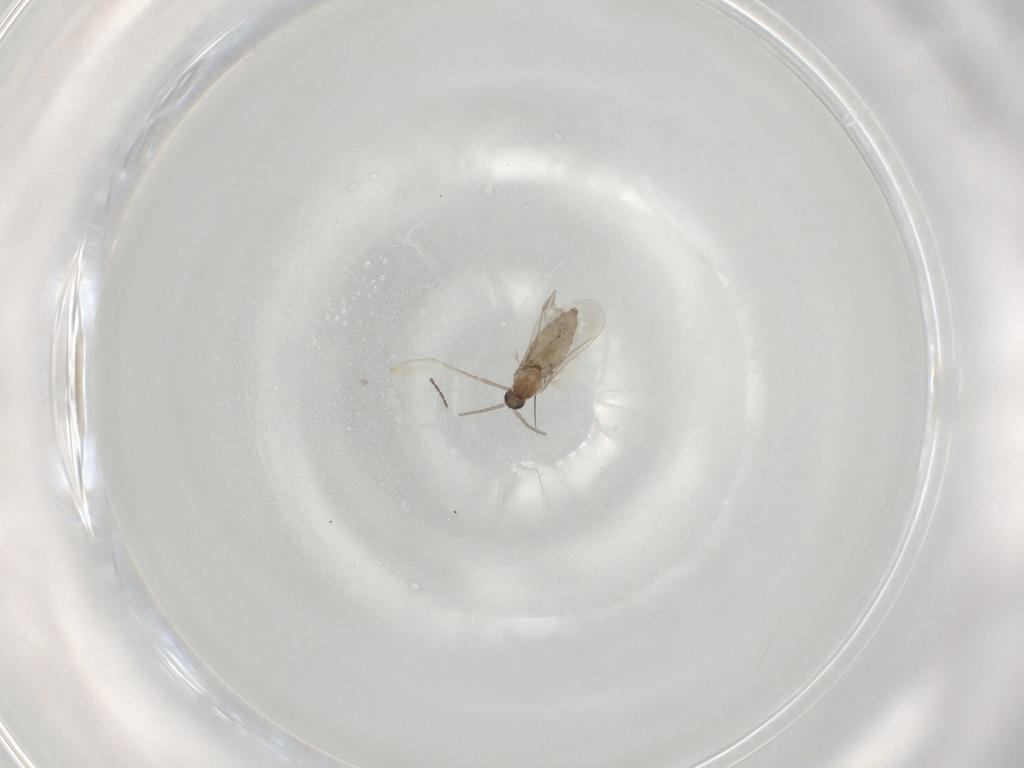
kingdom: Animalia
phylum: Arthropoda
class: Insecta
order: Diptera
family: Cecidomyiidae
